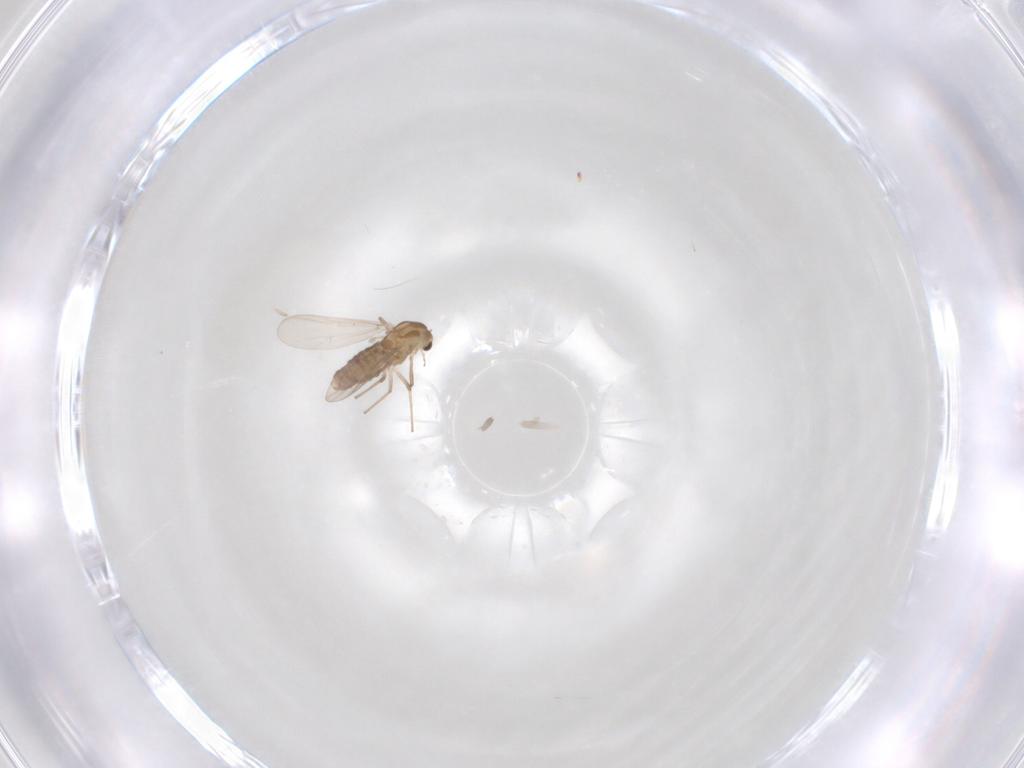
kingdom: Animalia
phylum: Arthropoda
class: Insecta
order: Diptera
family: Chironomidae
